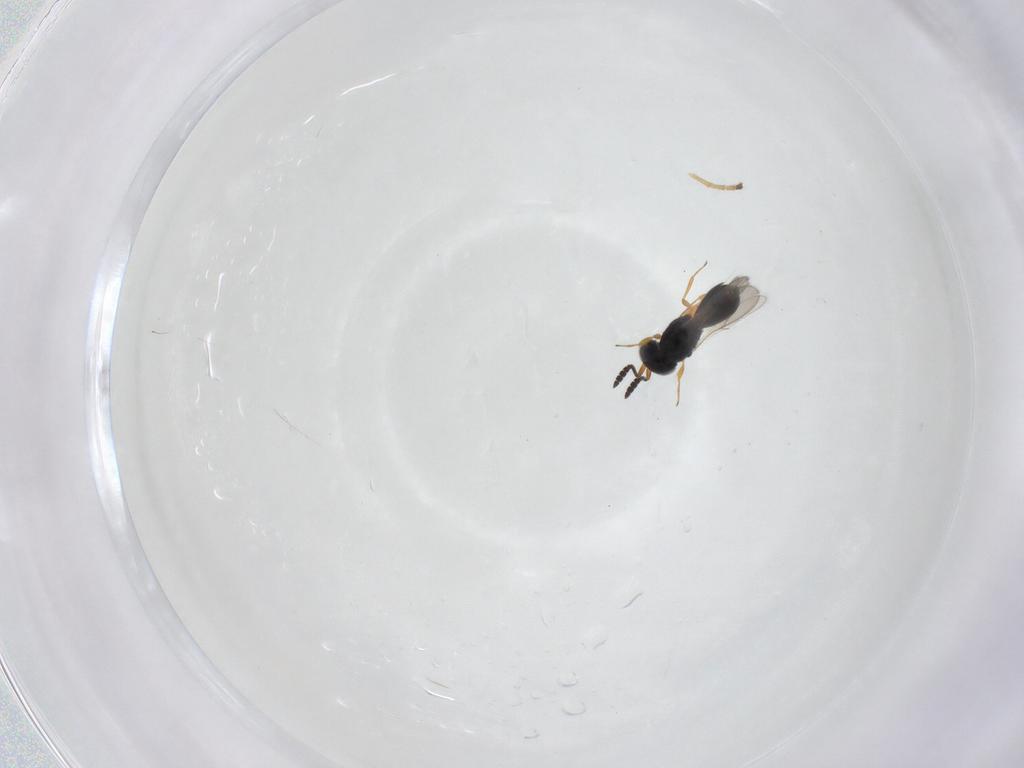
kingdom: Animalia
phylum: Arthropoda
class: Insecta
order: Hymenoptera
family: Scelionidae
